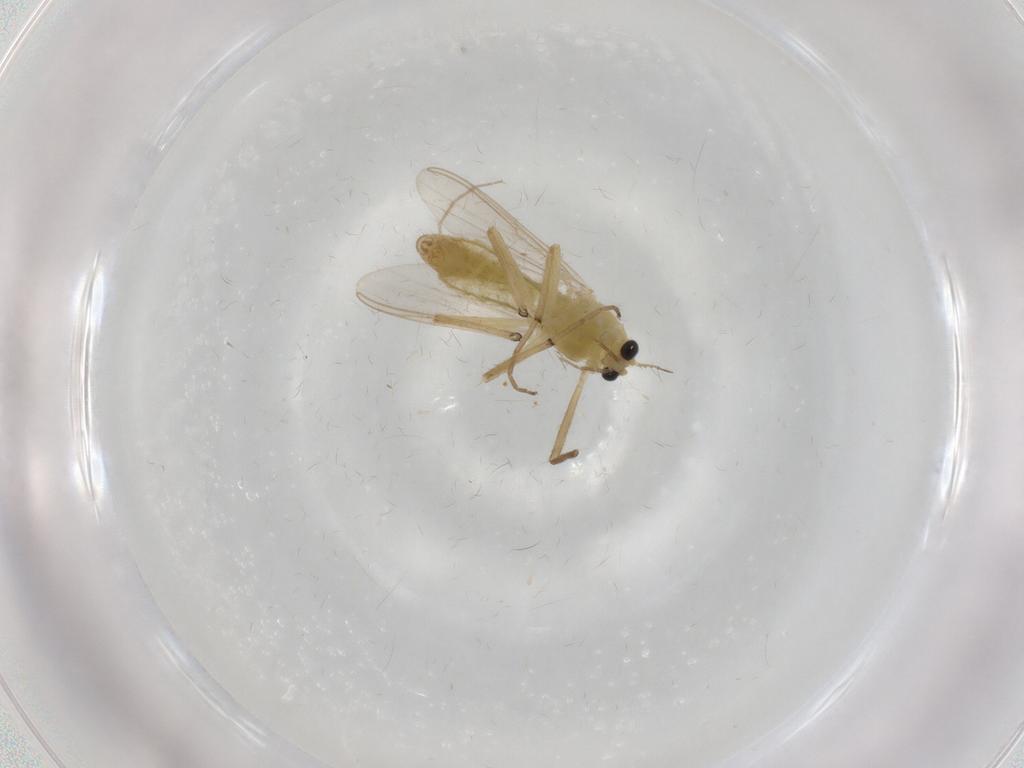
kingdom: Animalia
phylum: Arthropoda
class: Insecta
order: Diptera
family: Chironomidae
